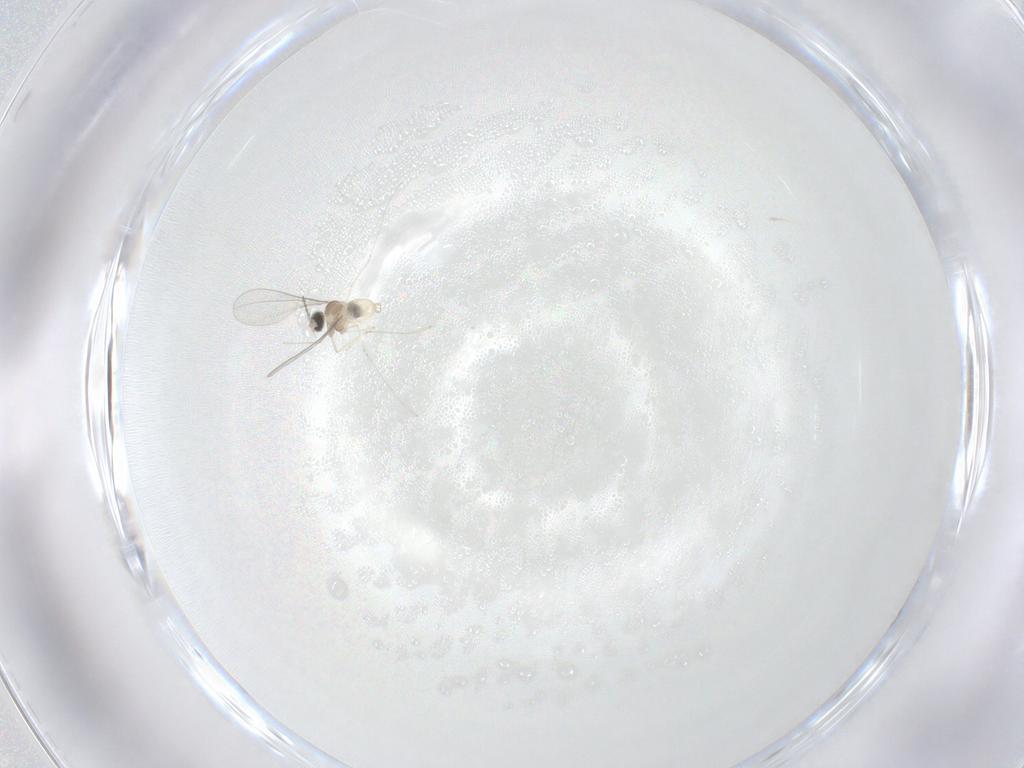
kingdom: Animalia
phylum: Arthropoda
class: Insecta
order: Diptera
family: Cecidomyiidae
